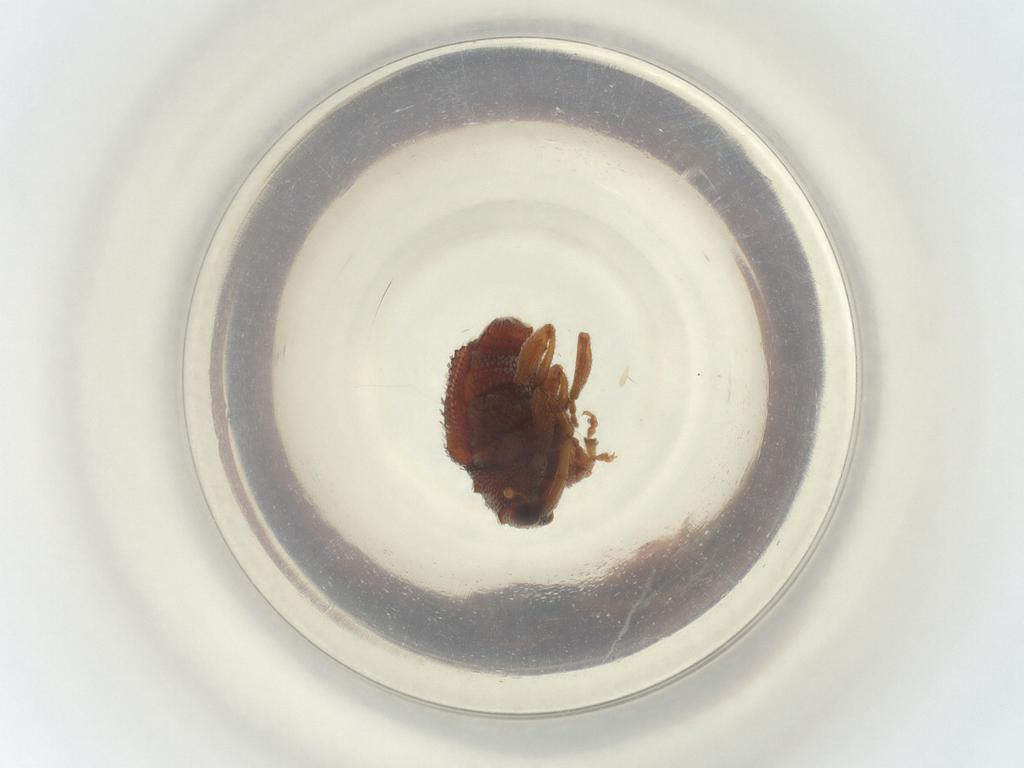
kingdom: Animalia
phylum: Arthropoda
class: Insecta
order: Coleoptera
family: Curculionidae
